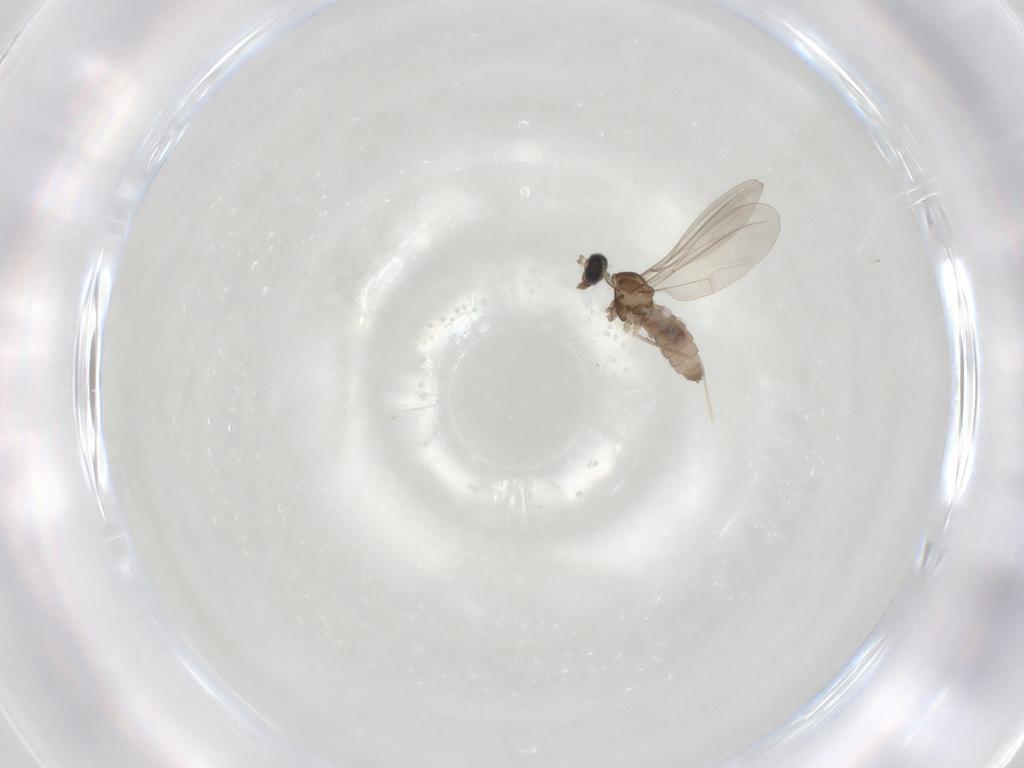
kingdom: Animalia
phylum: Arthropoda
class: Insecta
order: Diptera
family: Cecidomyiidae
